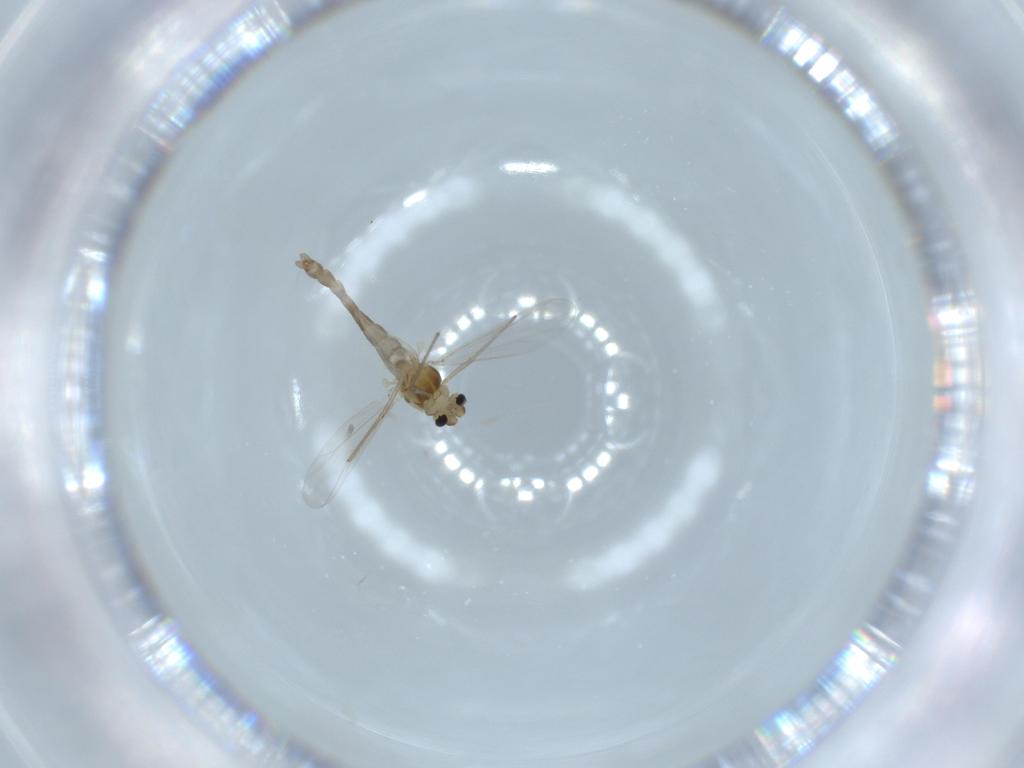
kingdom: Animalia
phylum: Arthropoda
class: Insecta
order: Diptera
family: Chironomidae
